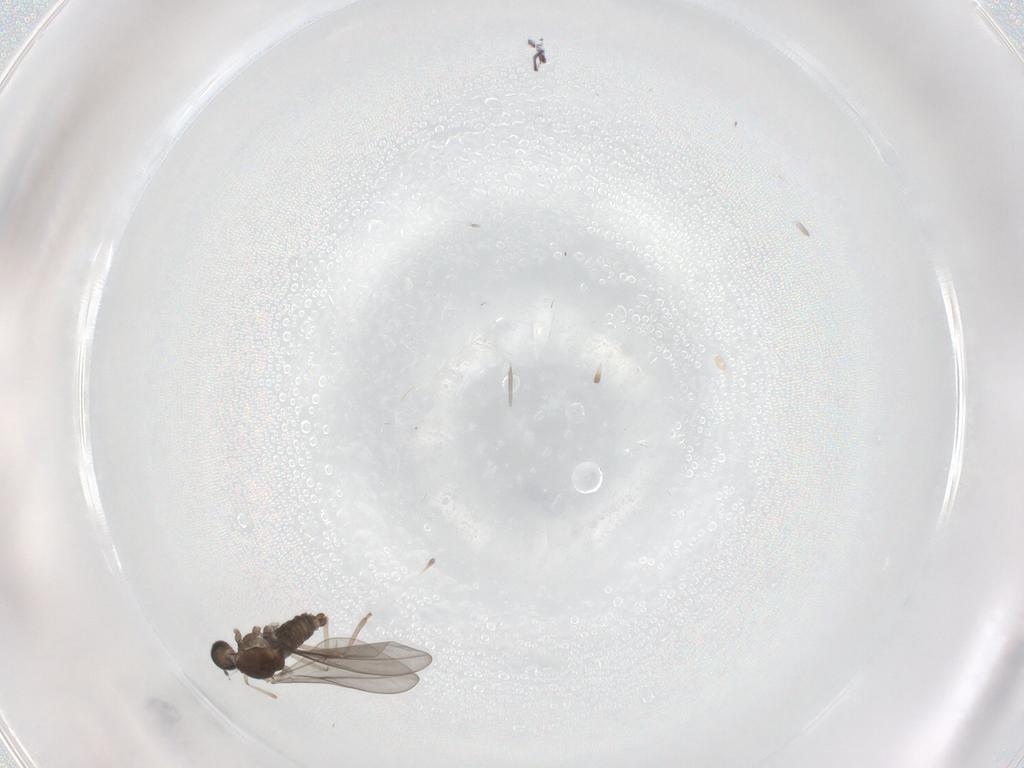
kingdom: Animalia
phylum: Arthropoda
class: Insecta
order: Diptera
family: Dolichopodidae
